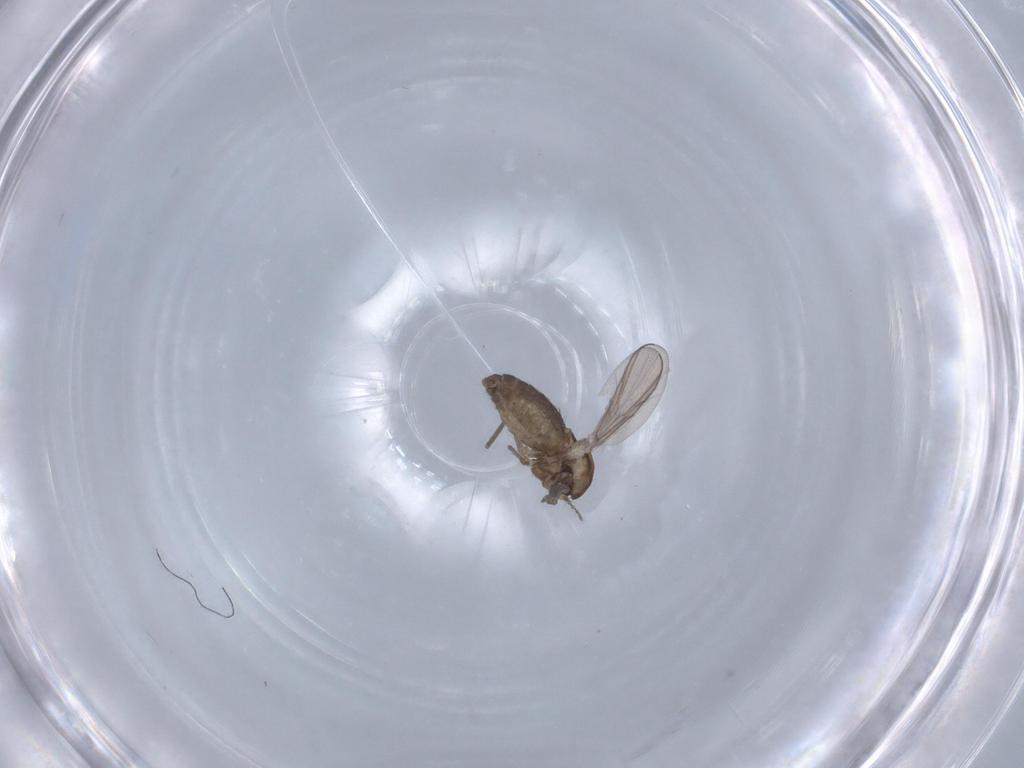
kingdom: Animalia
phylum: Arthropoda
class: Insecta
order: Diptera
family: Chironomidae
